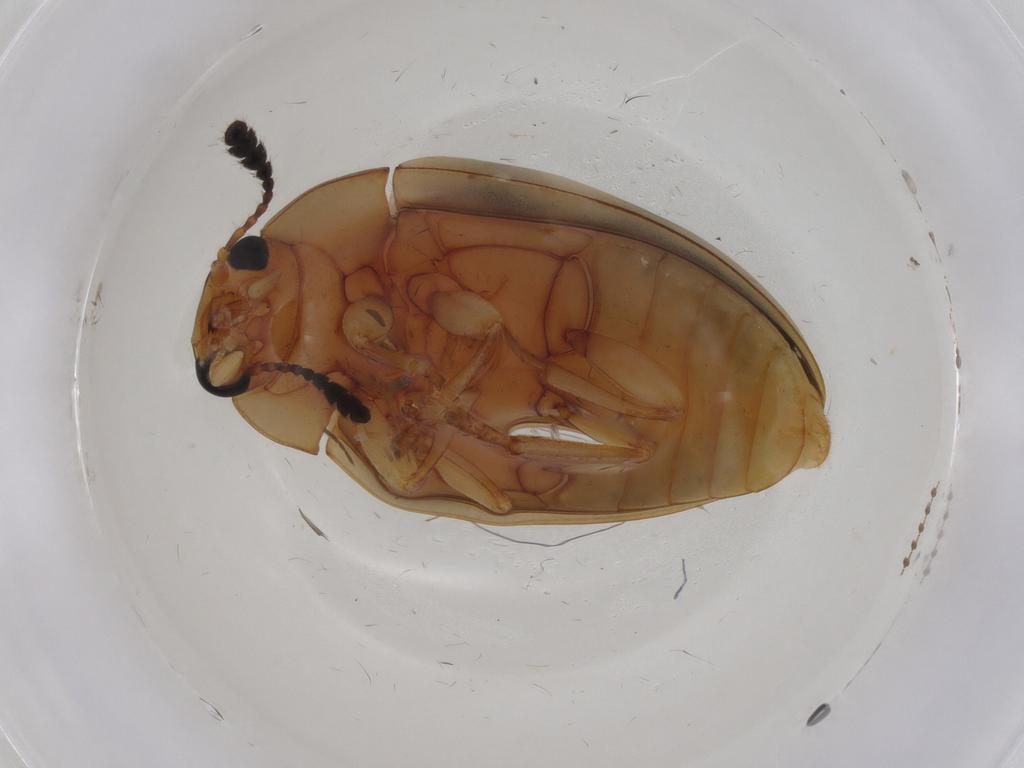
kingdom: Animalia
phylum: Arthropoda
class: Insecta
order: Coleoptera
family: Erotylidae
